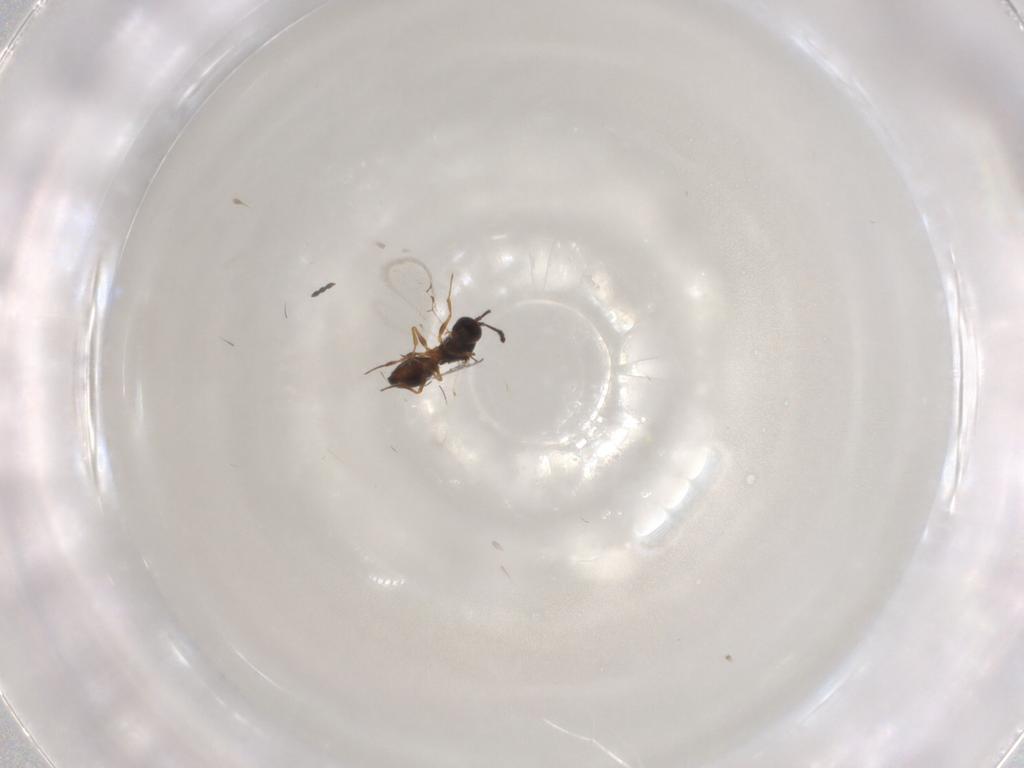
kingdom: Animalia
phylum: Arthropoda
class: Insecta
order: Hymenoptera
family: Figitidae
